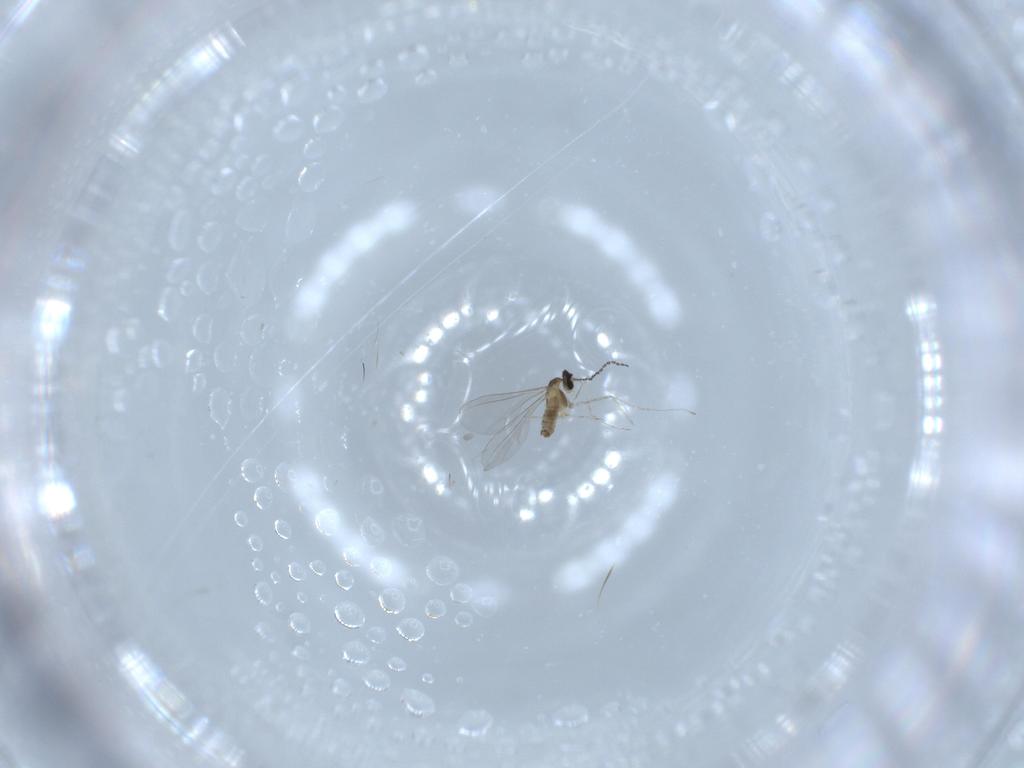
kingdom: Animalia
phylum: Arthropoda
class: Insecta
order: Diptera
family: Cecidomyiidae
